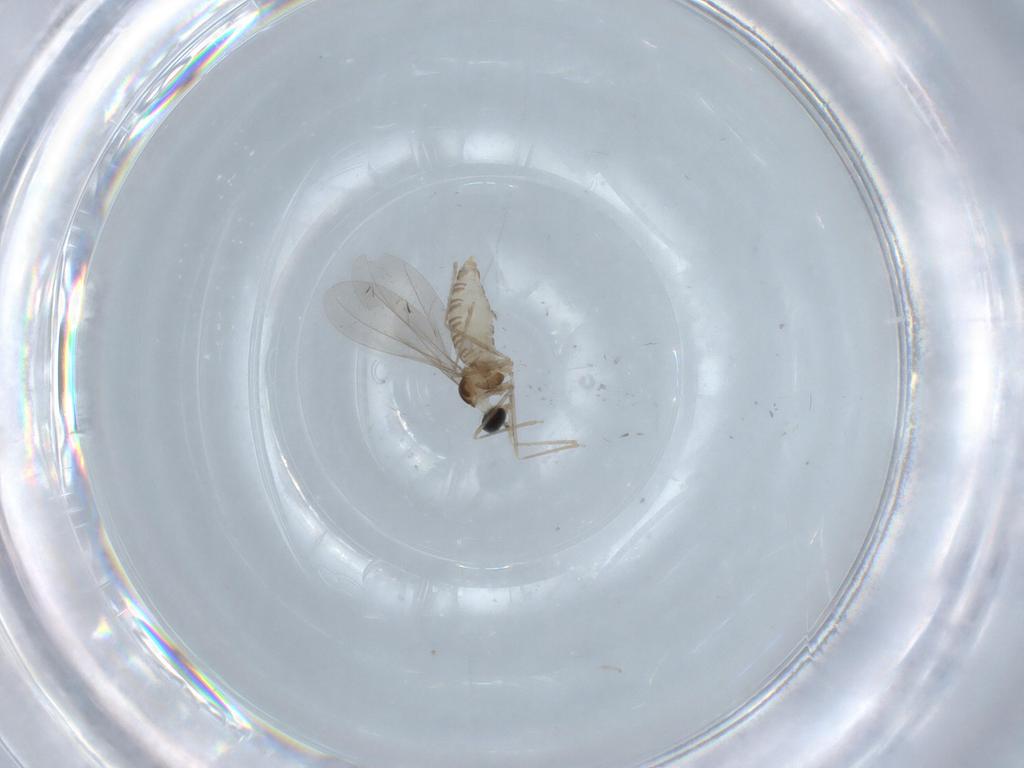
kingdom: Animalia
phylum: Arthropoda
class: Insecta
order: Diptera
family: Cecidomyiidae
